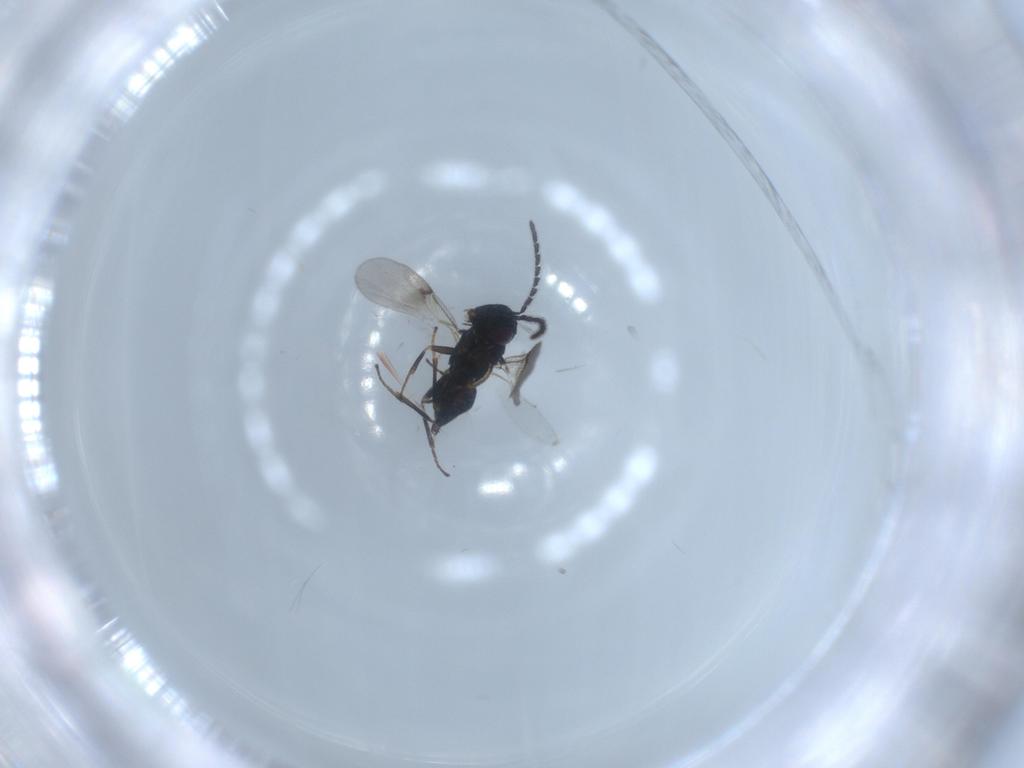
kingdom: Animalia
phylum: Arthropoda
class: Insecta
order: Hymenoptera
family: Encyrtidae
